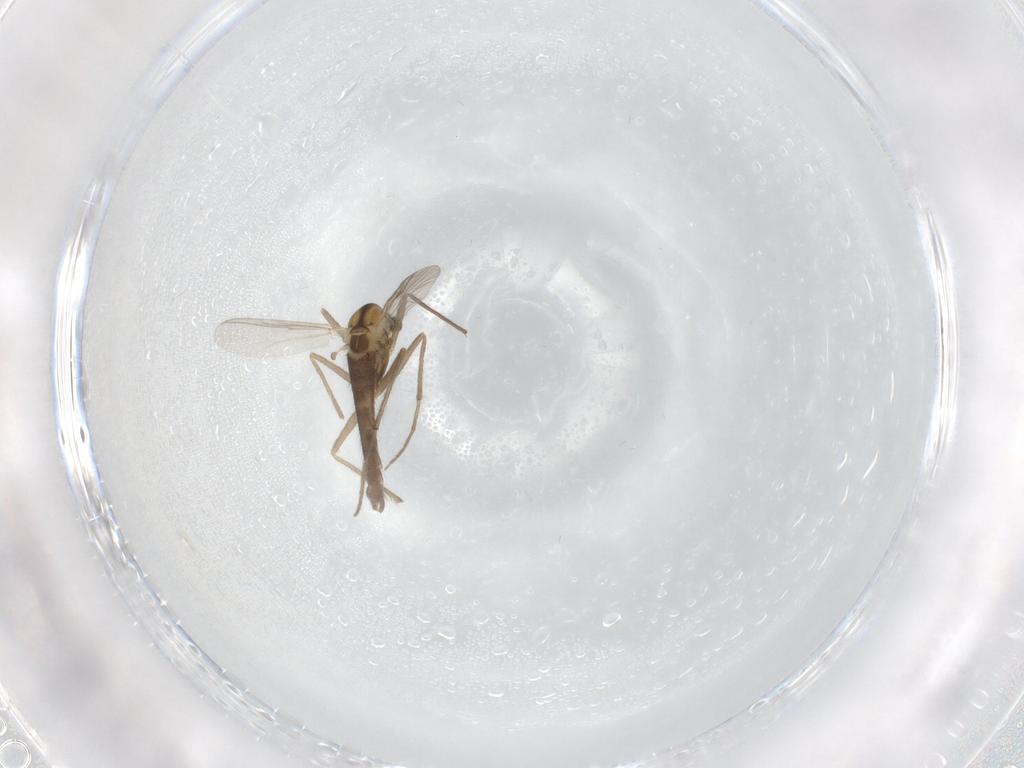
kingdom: Animalia
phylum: Arthropoda
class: Insecta
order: Diptera
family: Chironomidae
